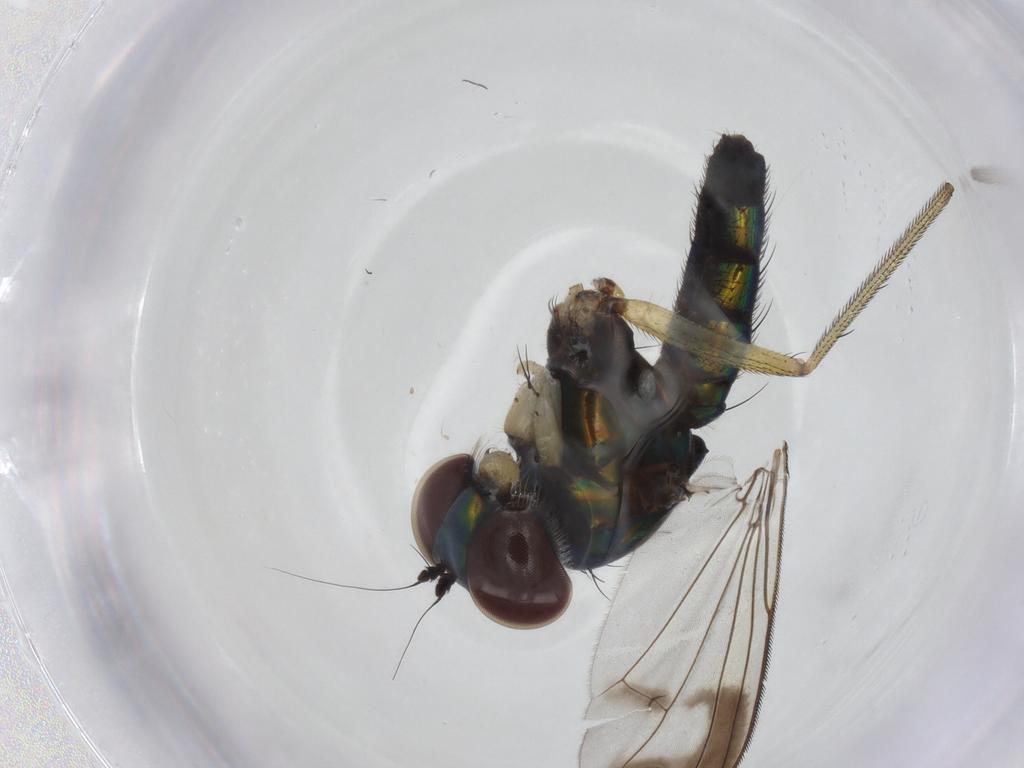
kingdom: Animalia
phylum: Arthropoda
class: Insecta
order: Diptera
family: Dolichopodidae
